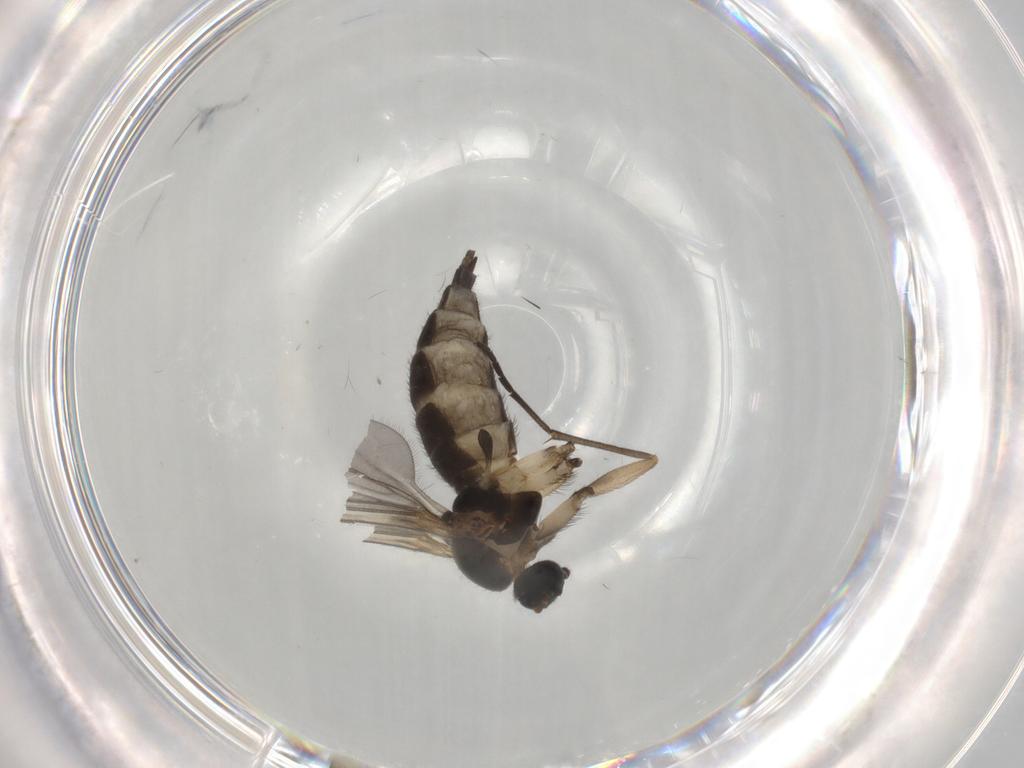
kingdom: Animalia
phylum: Arthropoda
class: Insecta
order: Diptera
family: Sciaridae
